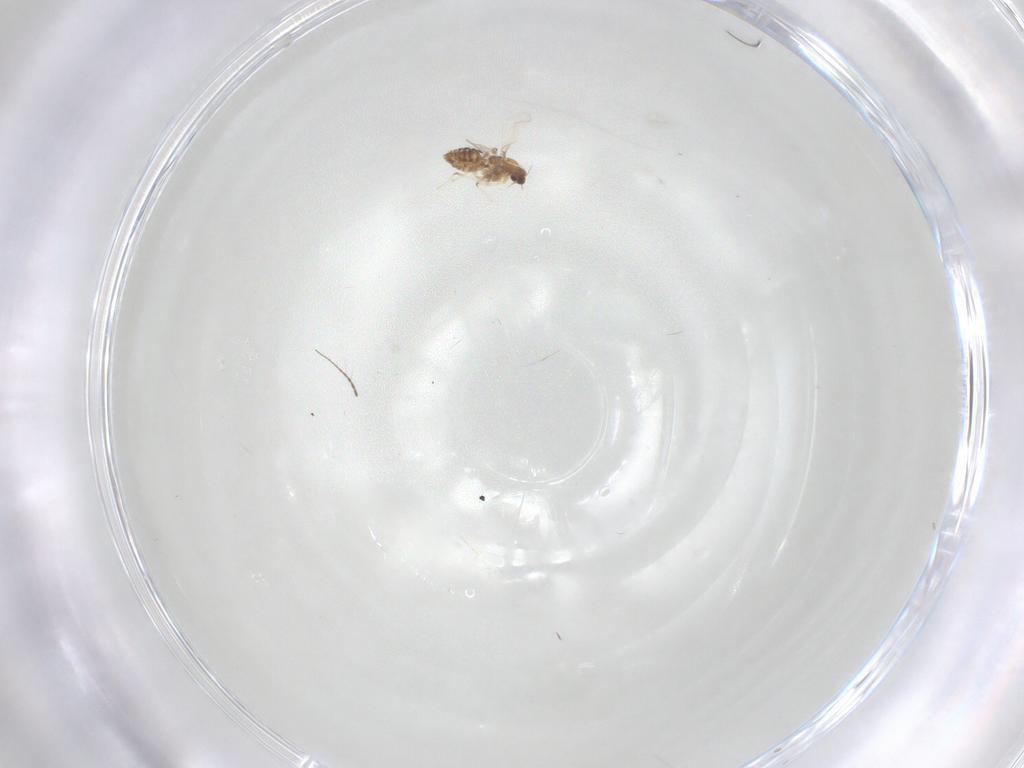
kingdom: Animalia
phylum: Arthropoda
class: Insecta
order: Diptera
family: Chironomidae
